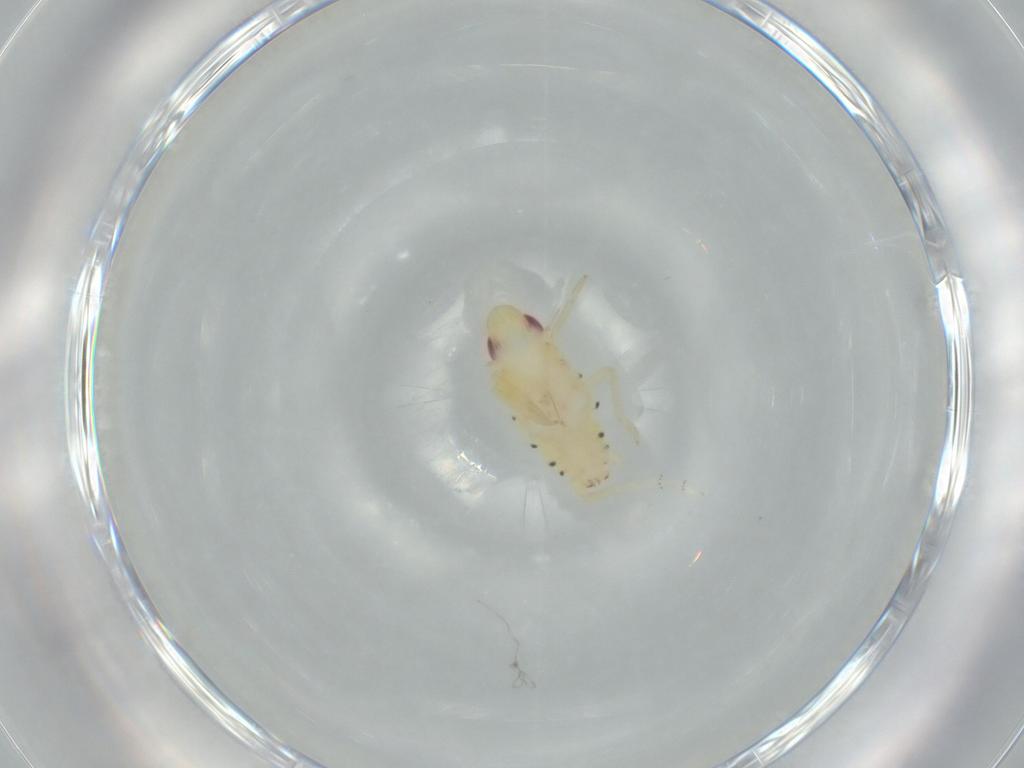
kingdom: Animalia
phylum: Arthropoda
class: Insecta
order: Hemiptera
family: Tropiduchidae
